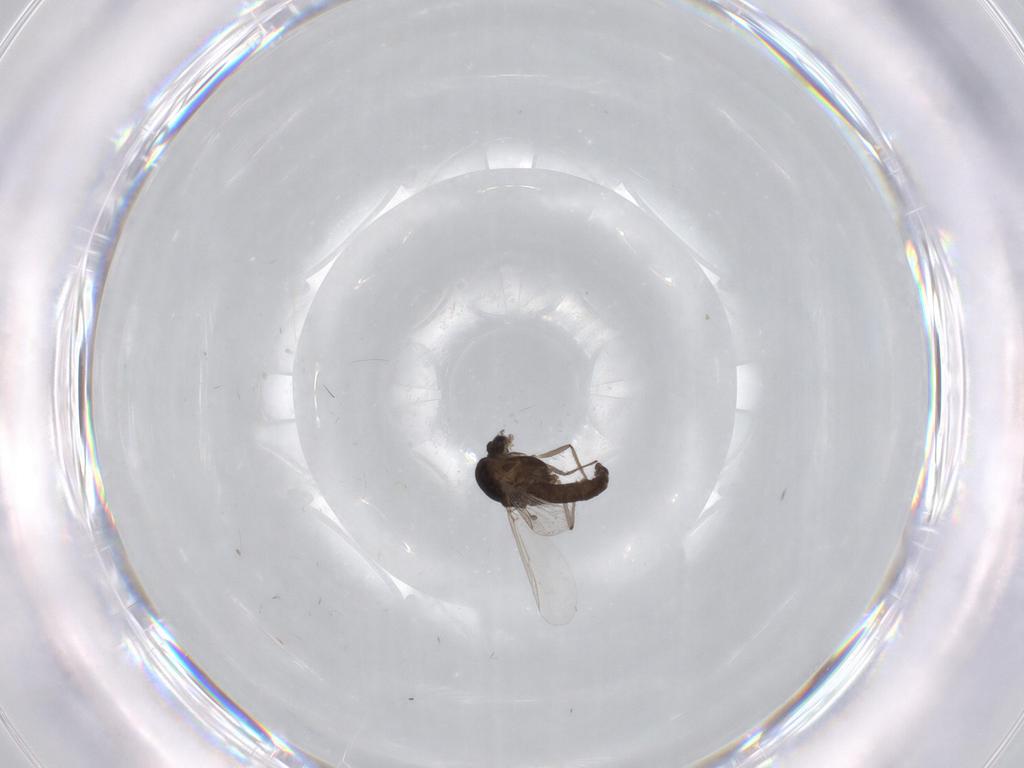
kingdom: Animalia
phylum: Arthropoda
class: Insecta
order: Diptera
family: Chironomidae
